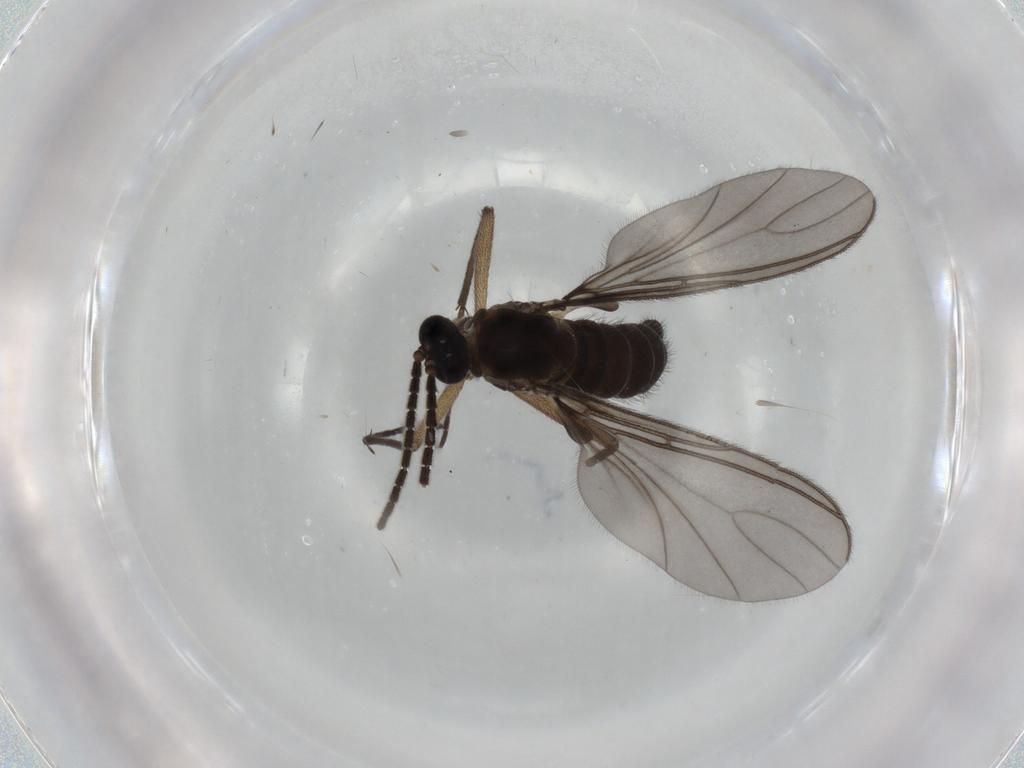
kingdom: Animalia
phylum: Arthropoda
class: Insecta
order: Diptera
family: Sciaridae
